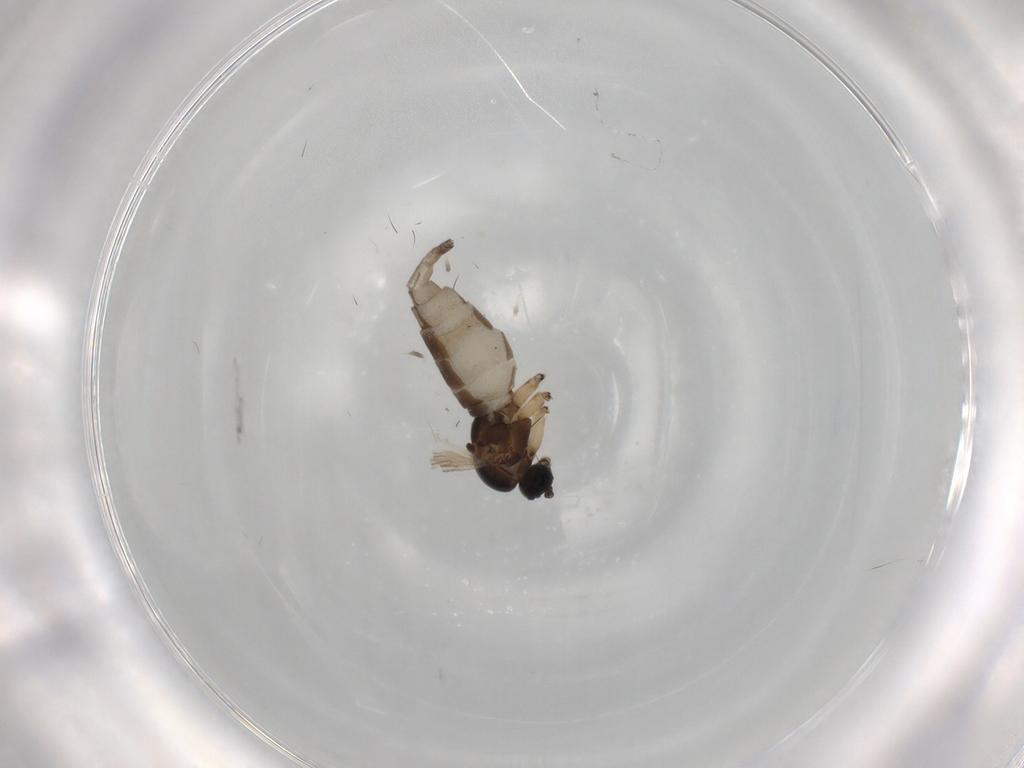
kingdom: Animalia
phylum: Arthropoda
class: Insecta
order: Diptera
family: Sciaridae
